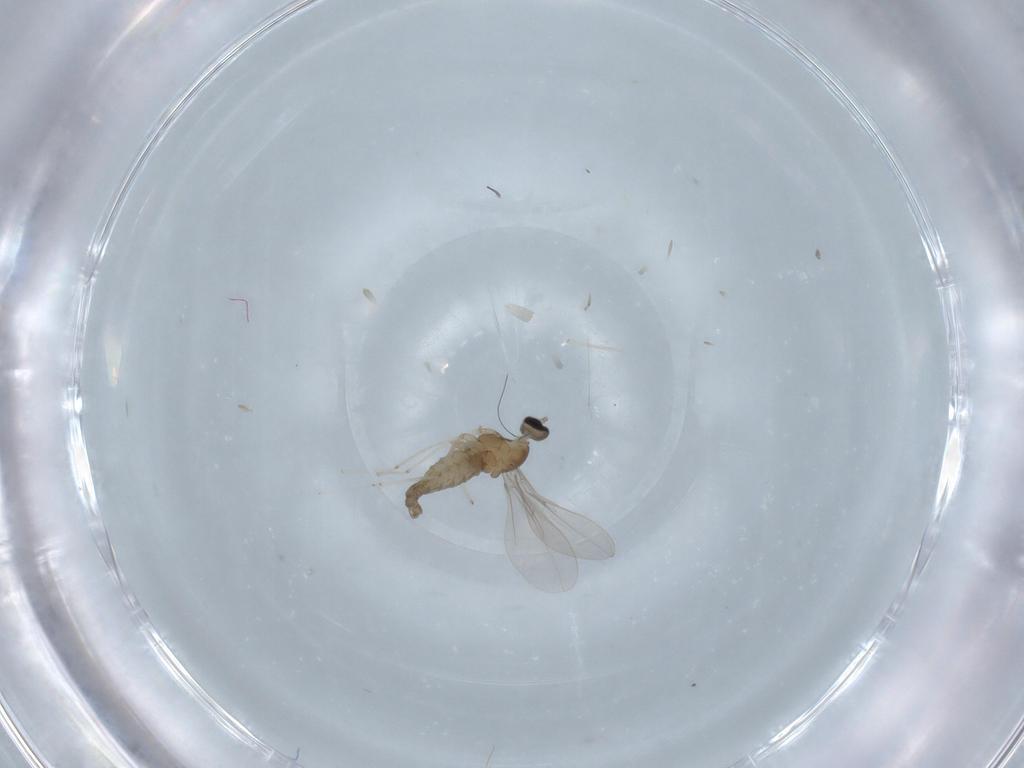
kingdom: Animalia
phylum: Arthropoda
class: Insecta
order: Diptera
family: Cecidomyiidae
